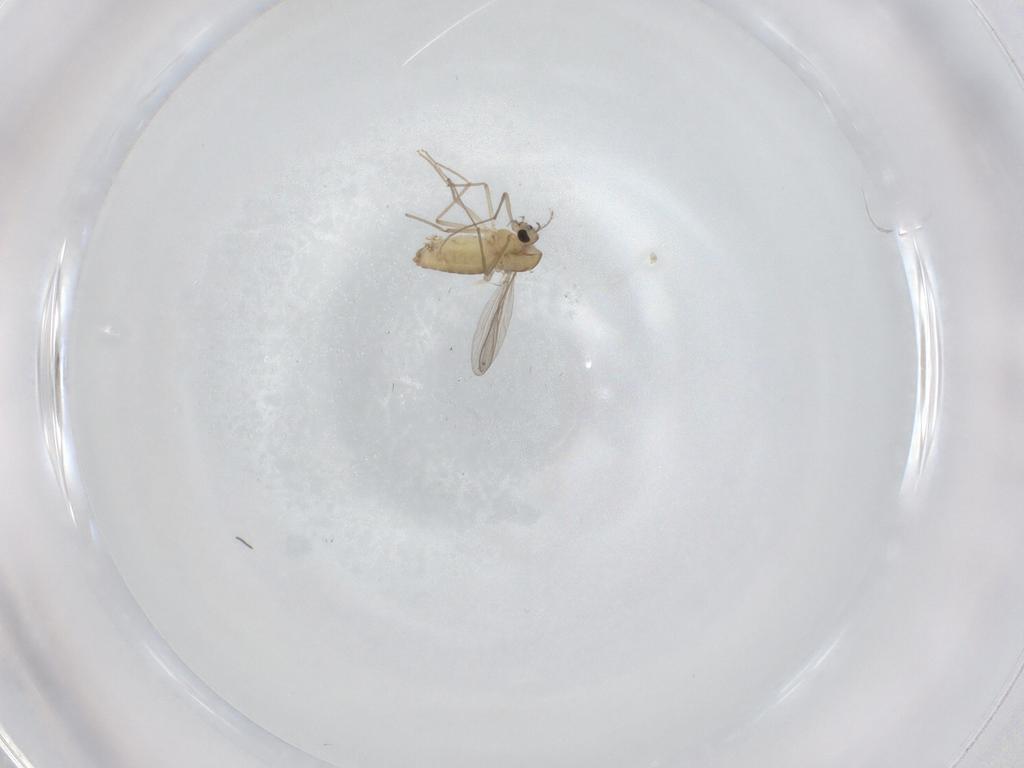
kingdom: Animalia
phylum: Arthropoda
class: Insecta
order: Diptera
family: Chironomidae
